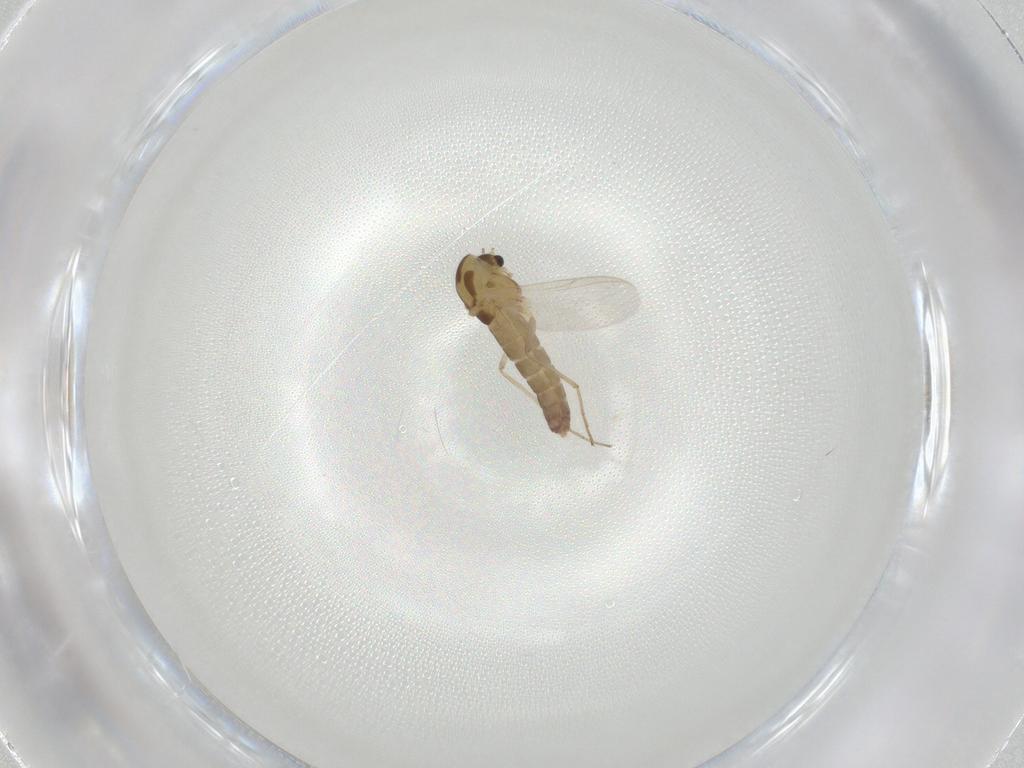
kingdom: Animalia
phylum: Arthropoda
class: Insecta
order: Diptera
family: Chironomidae
